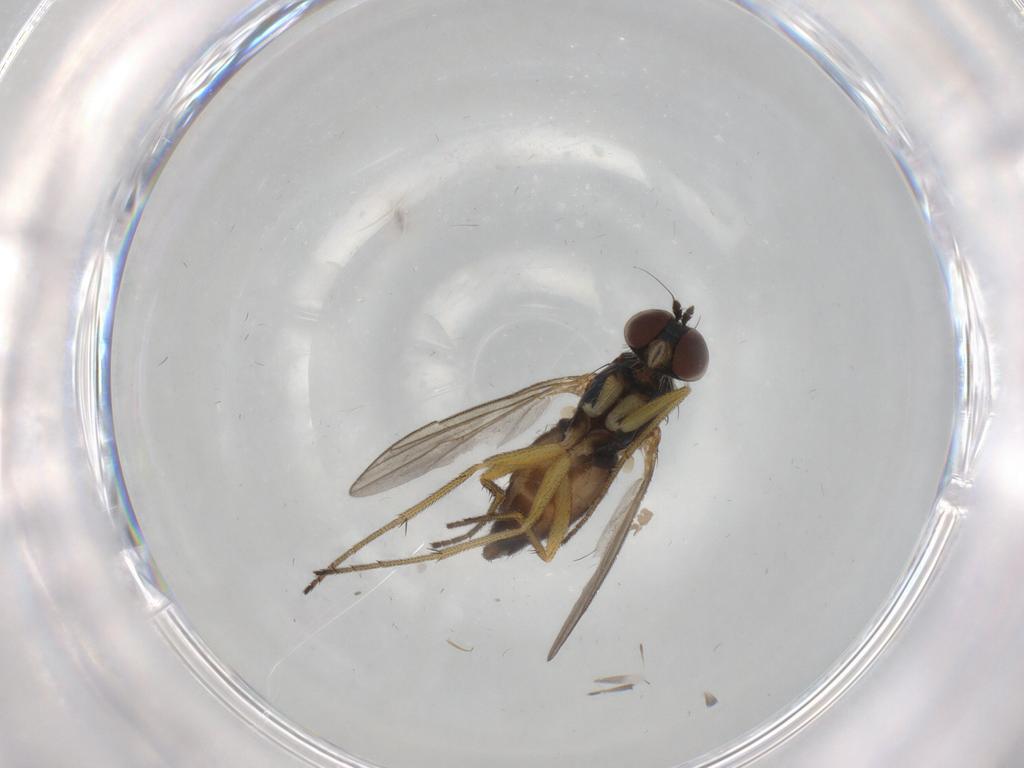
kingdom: Animalia
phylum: Arthropoda
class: Insecta
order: Diptera
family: Dolichopodidae
